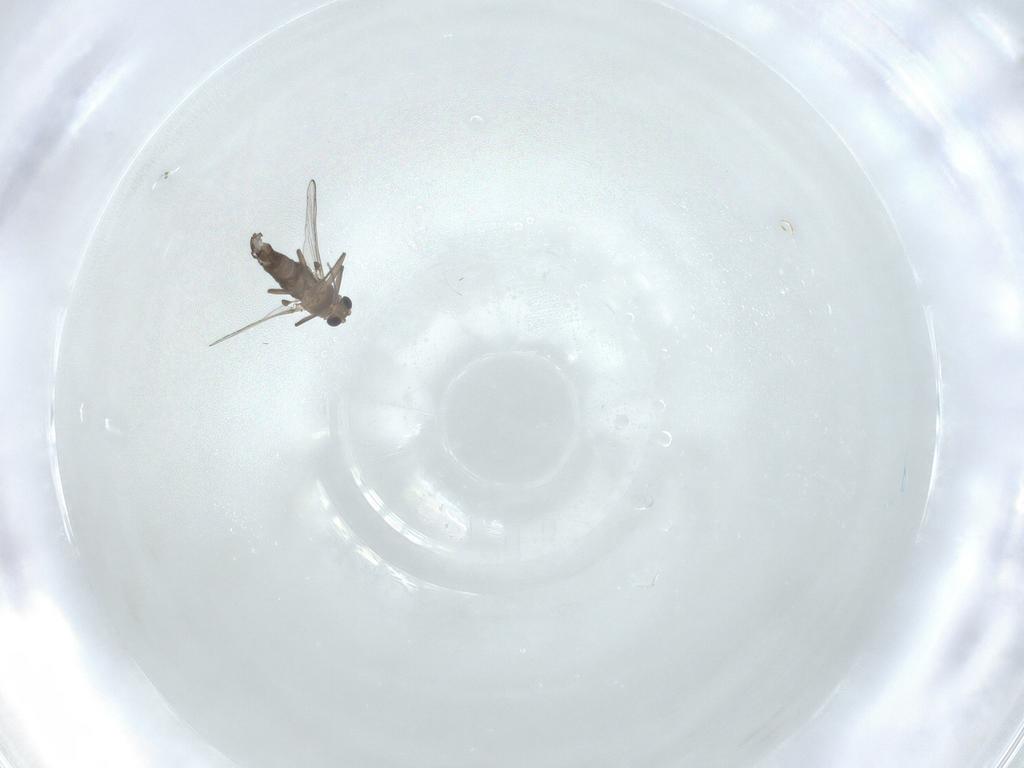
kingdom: Animalia
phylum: Arthropoda
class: Insecta
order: Diptera
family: Chironomidae
